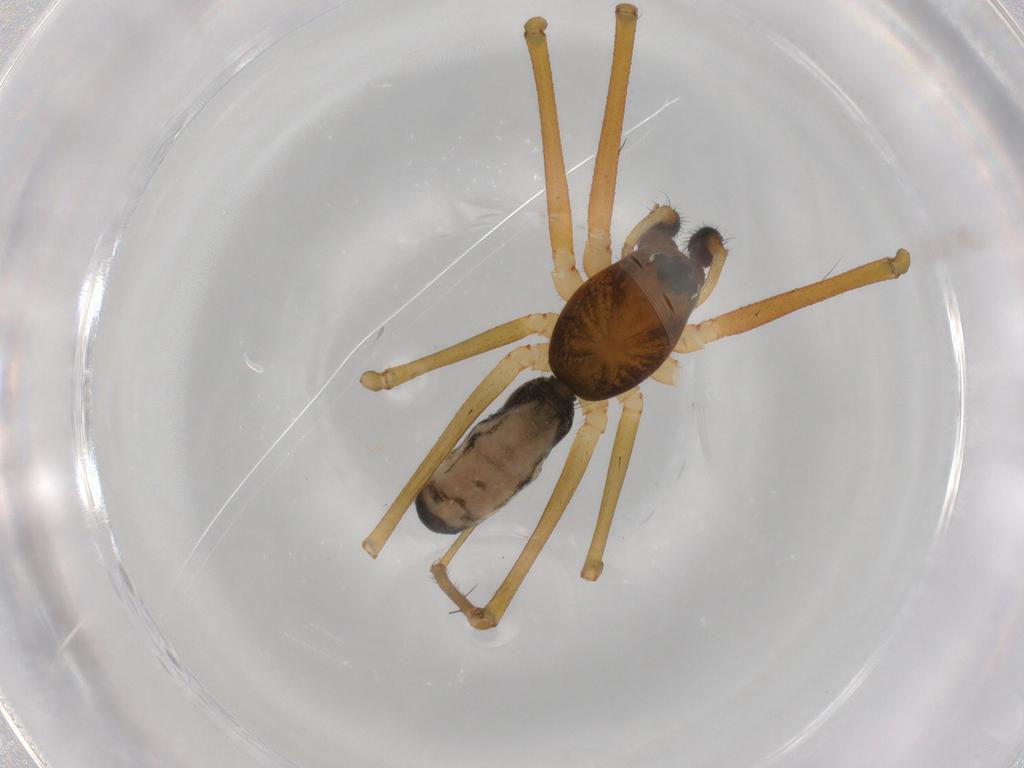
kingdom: Animalia
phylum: Arthropoda
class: Arachnida
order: Araneae
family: Theridiidae
